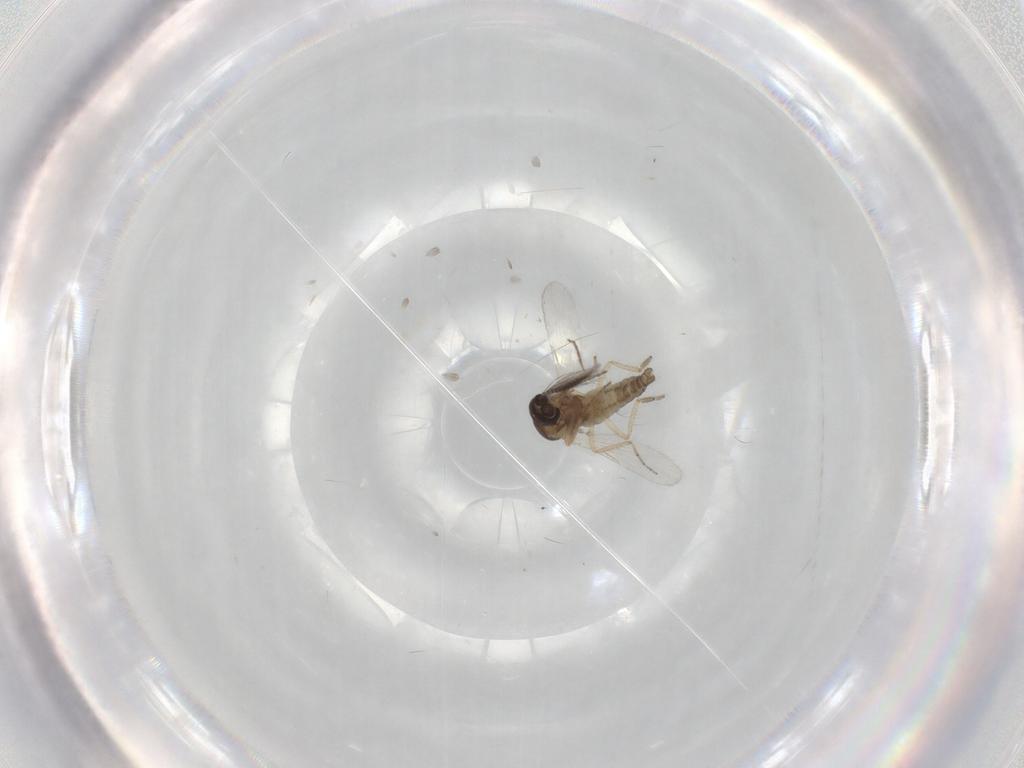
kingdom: Animalia
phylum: Arthropoda
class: Insecta
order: Diptera
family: Ceratopogonidae
